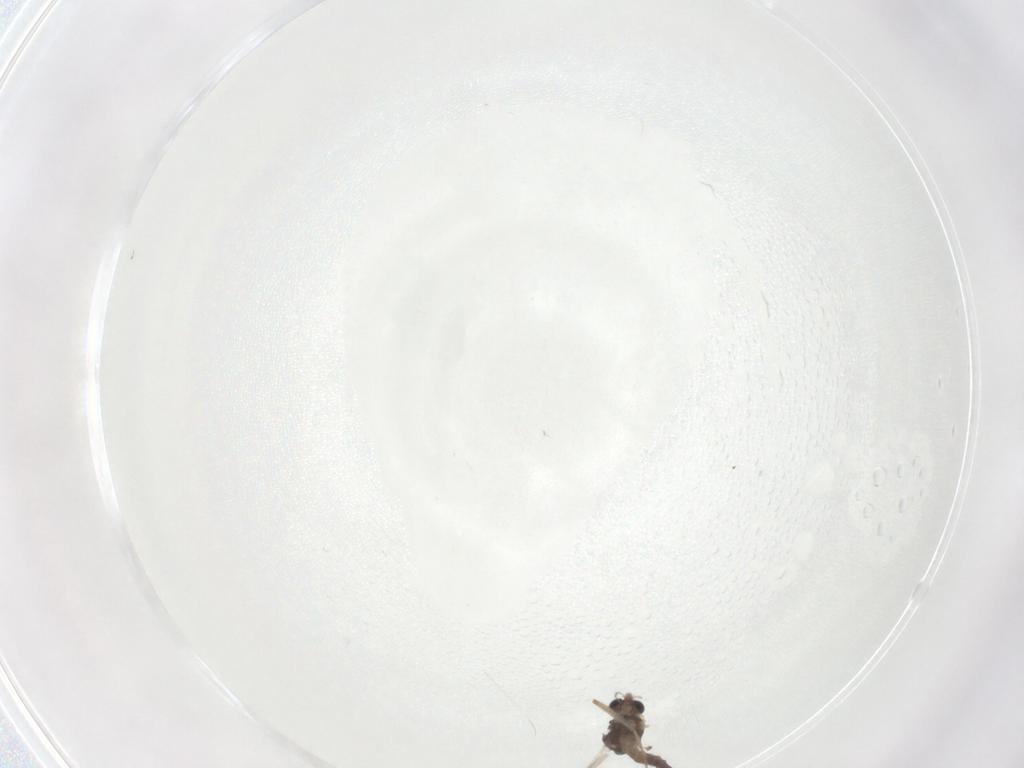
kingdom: Animalia
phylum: Arthropoda
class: Insecta
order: Diptera
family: Chironomidae
